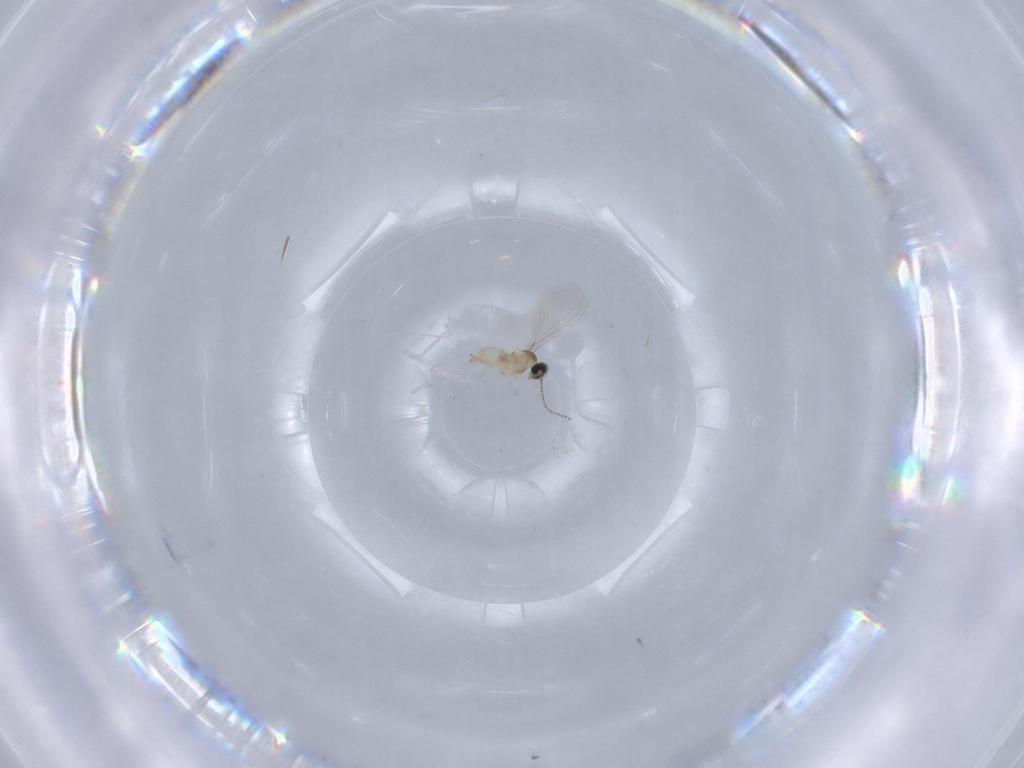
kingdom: Animalia
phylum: Arthropoda
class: Insecta
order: Diptera
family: Cecidomyiidae
